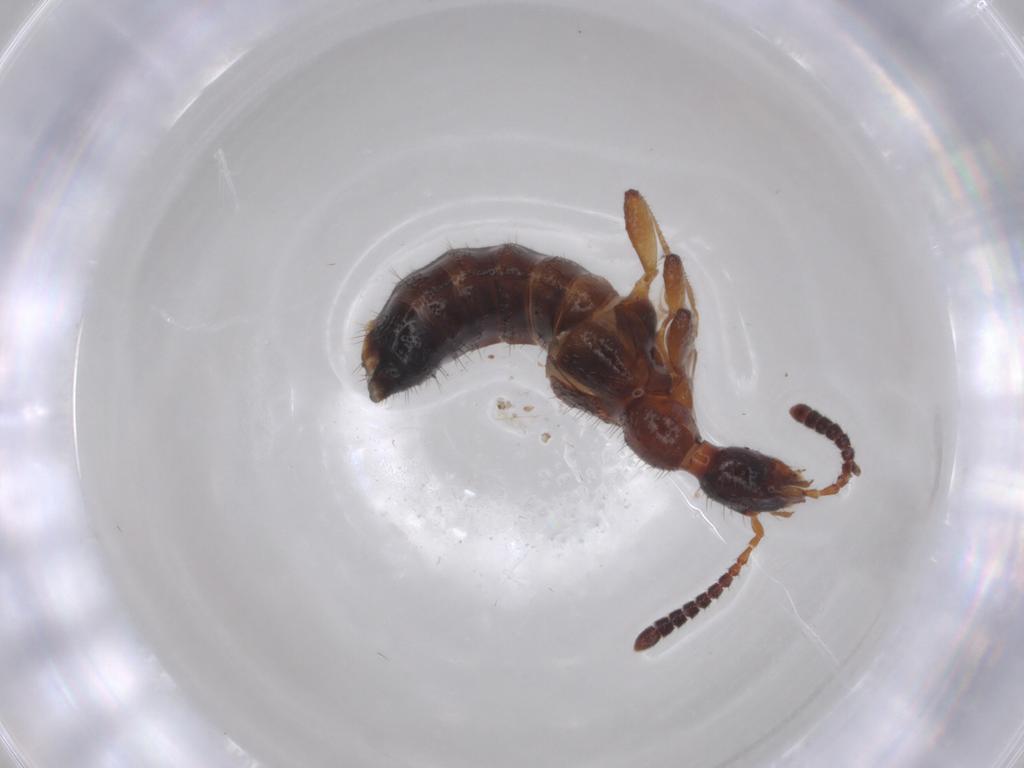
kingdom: Animalia
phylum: Arthropoda
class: Insecta
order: Coleoptera
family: Staphylinidae
